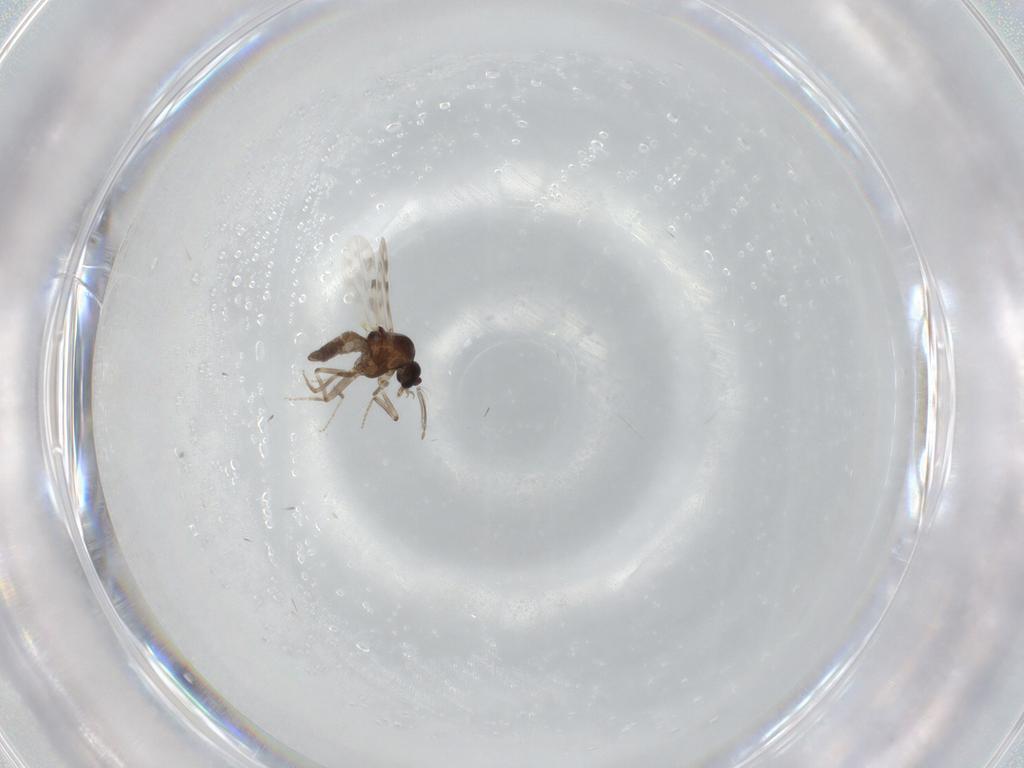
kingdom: Animalia
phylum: Arthropoda
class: Insecta
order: Diptera
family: Ceratopogonidae
